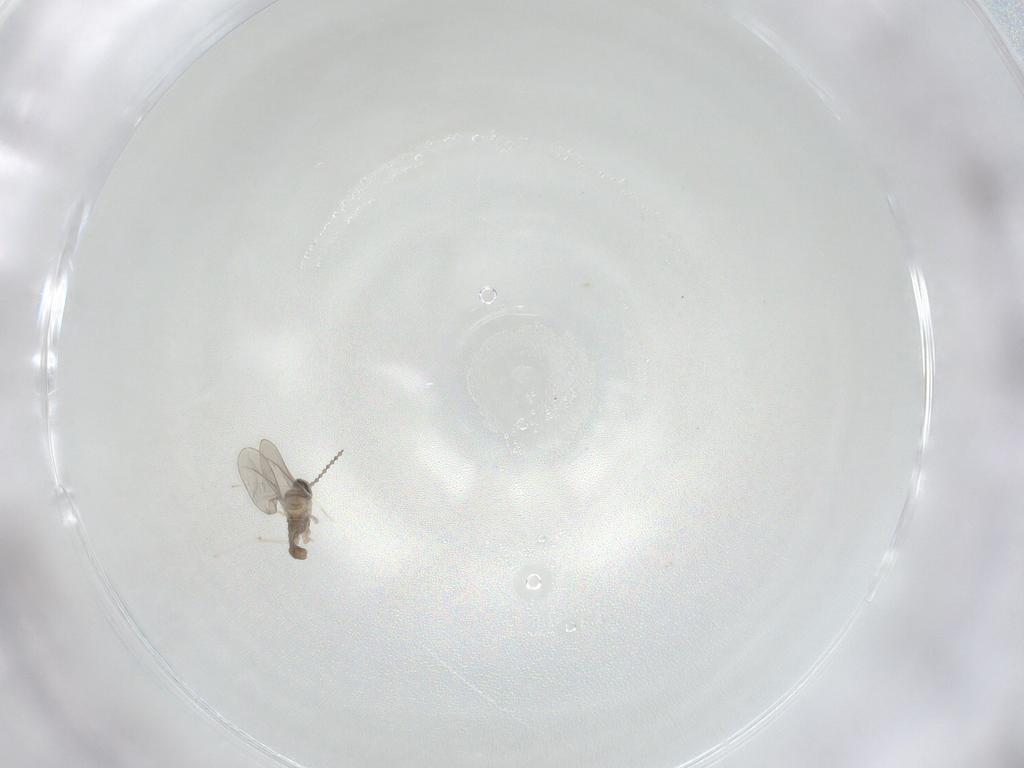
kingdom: Animalia
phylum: Arthropoda
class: Insecta
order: Diptera
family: Cecidomyiidae
